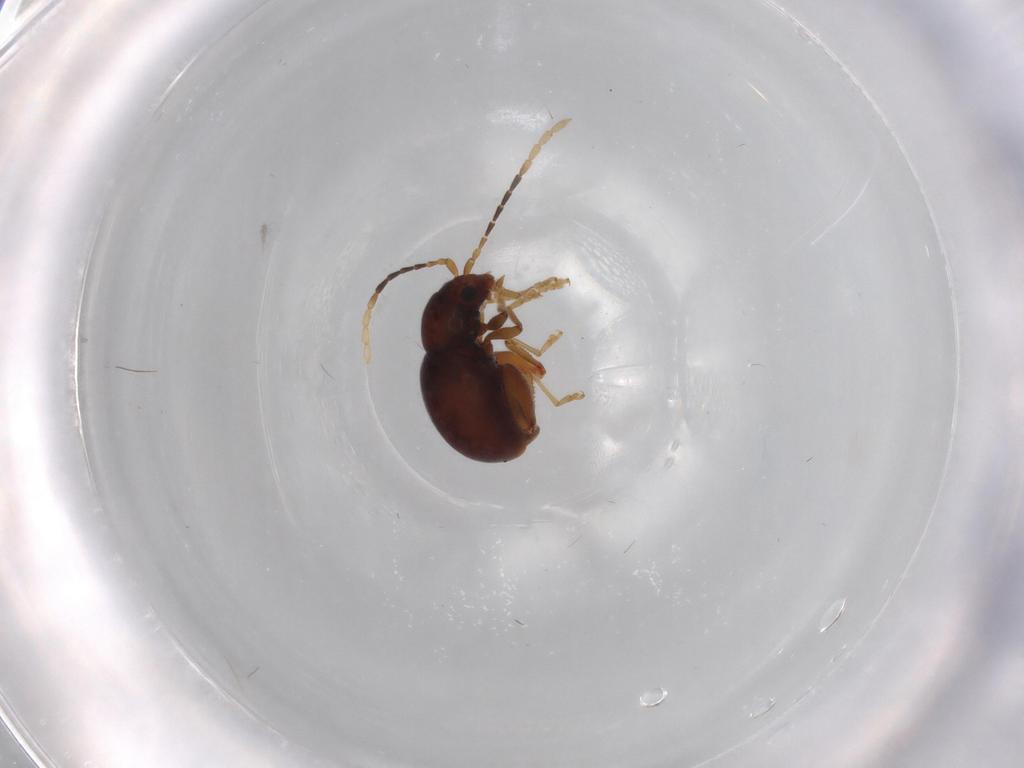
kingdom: Animalia
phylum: Arthropoda
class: Insecta
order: Coleoptera
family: Chrysomelidae
